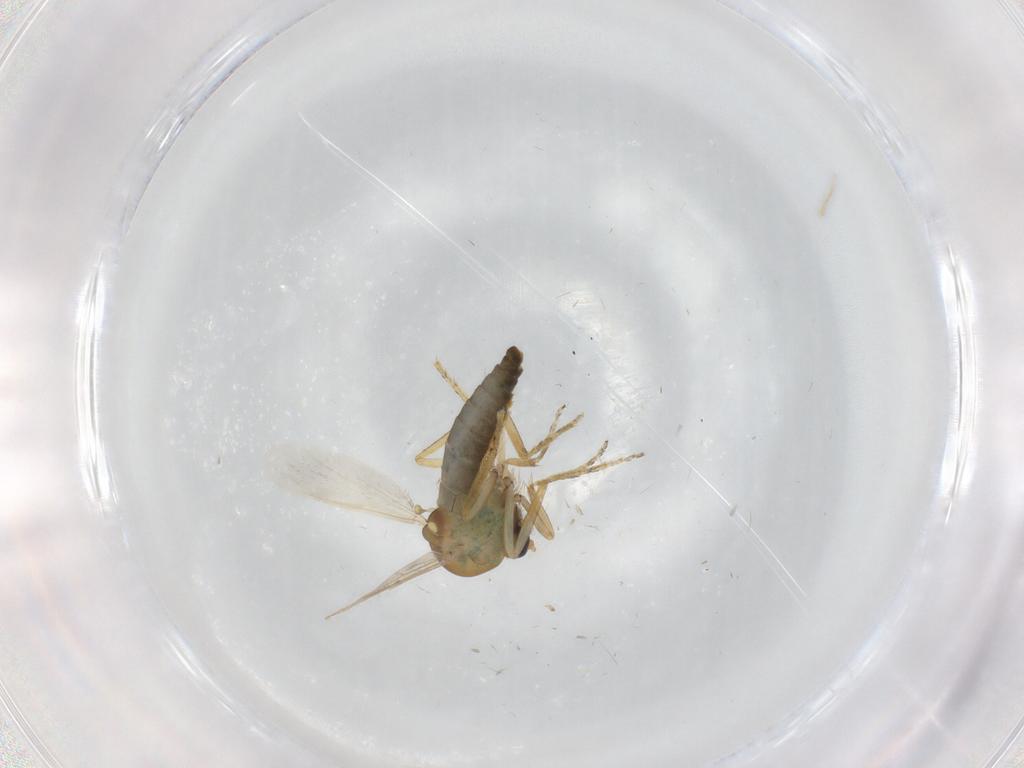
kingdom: Animalia
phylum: Arthropoda
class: Insecta
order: Diptera
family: Ceratopogonidae
